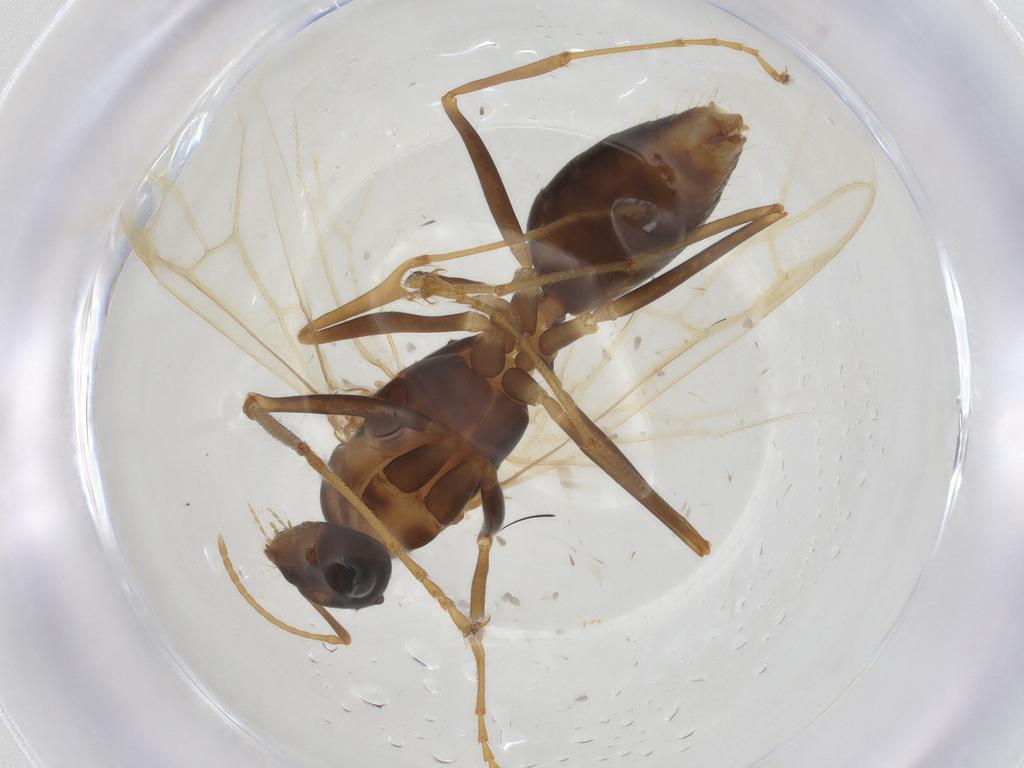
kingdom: Animalia
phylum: Arthropoda
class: Insecta
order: Hymenoptera
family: Formicidae
